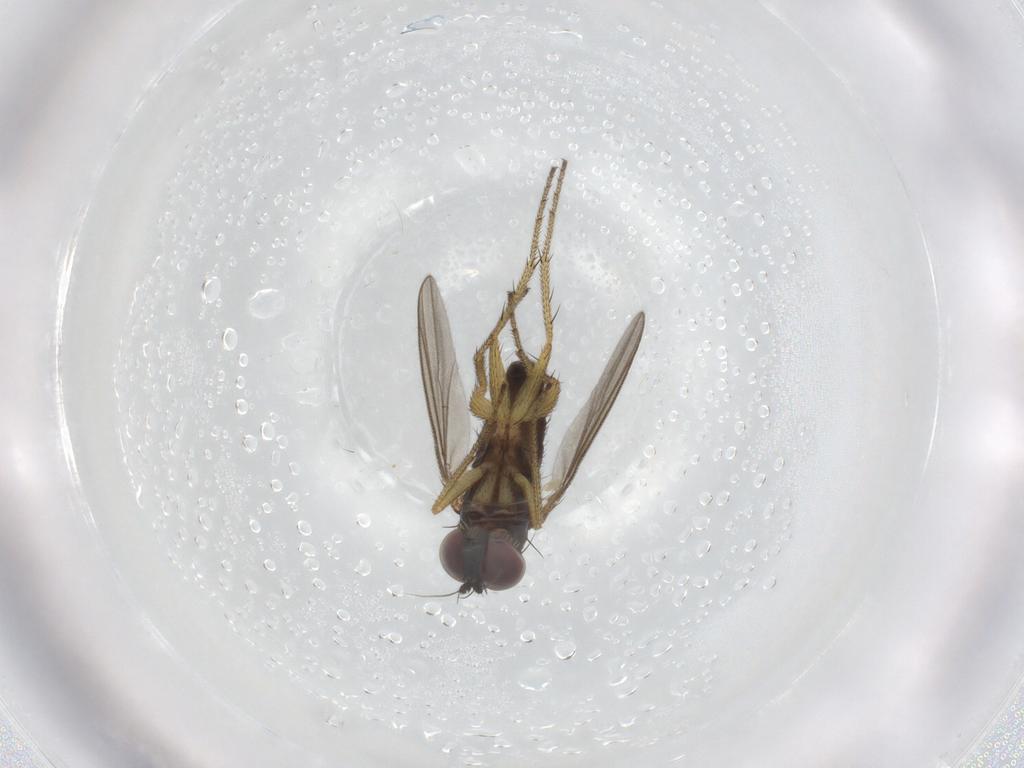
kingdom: Animalia
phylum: Arthropoda
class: Insecta
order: Diptera
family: Dolichopodidae
